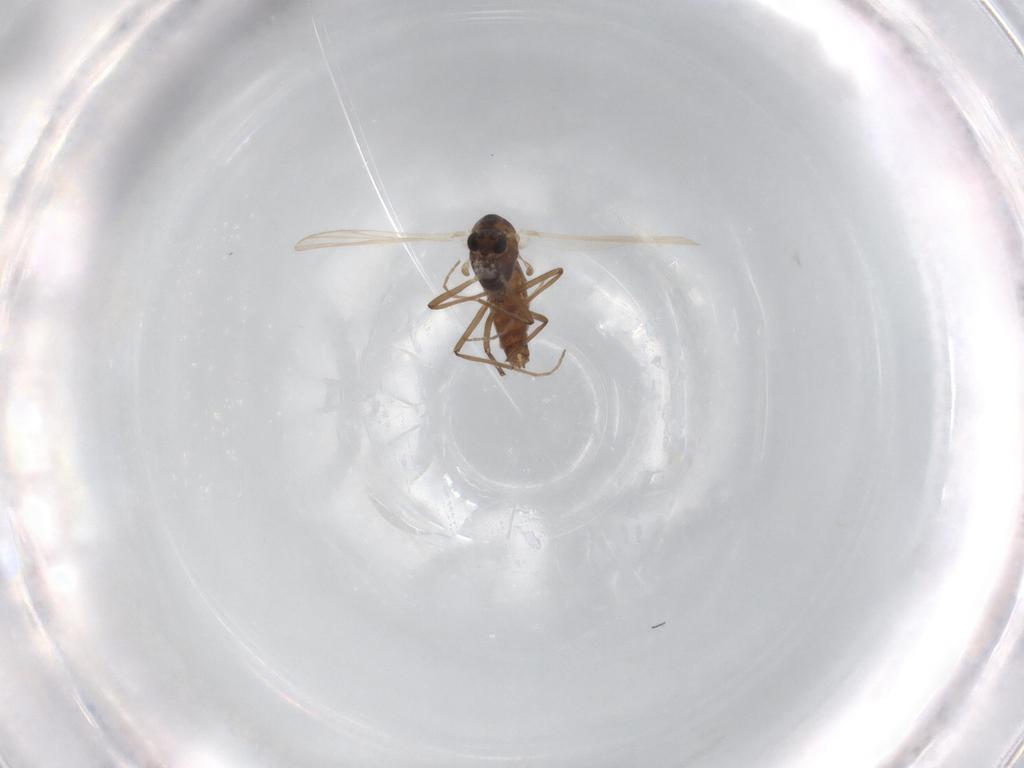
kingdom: Animalia
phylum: Arthropoda
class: Insecta
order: Diptera
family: Chironomidae
